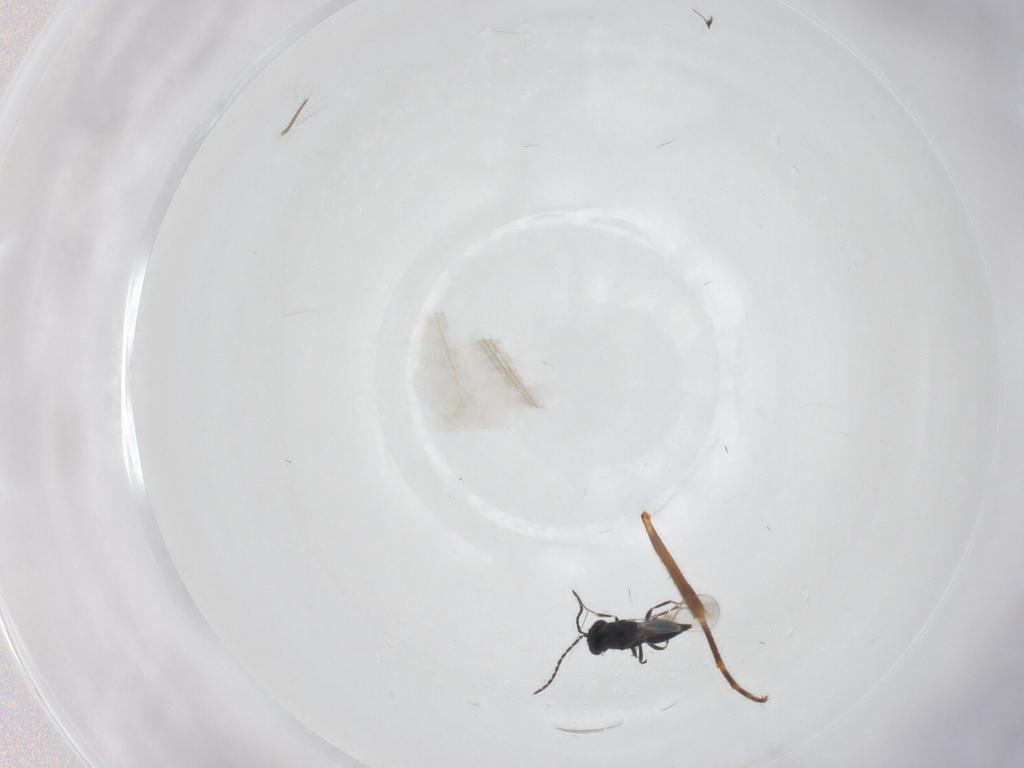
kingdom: Animalia
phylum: Arthropoda
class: Insecta
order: Hymenoptera
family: Ichneumonidae
